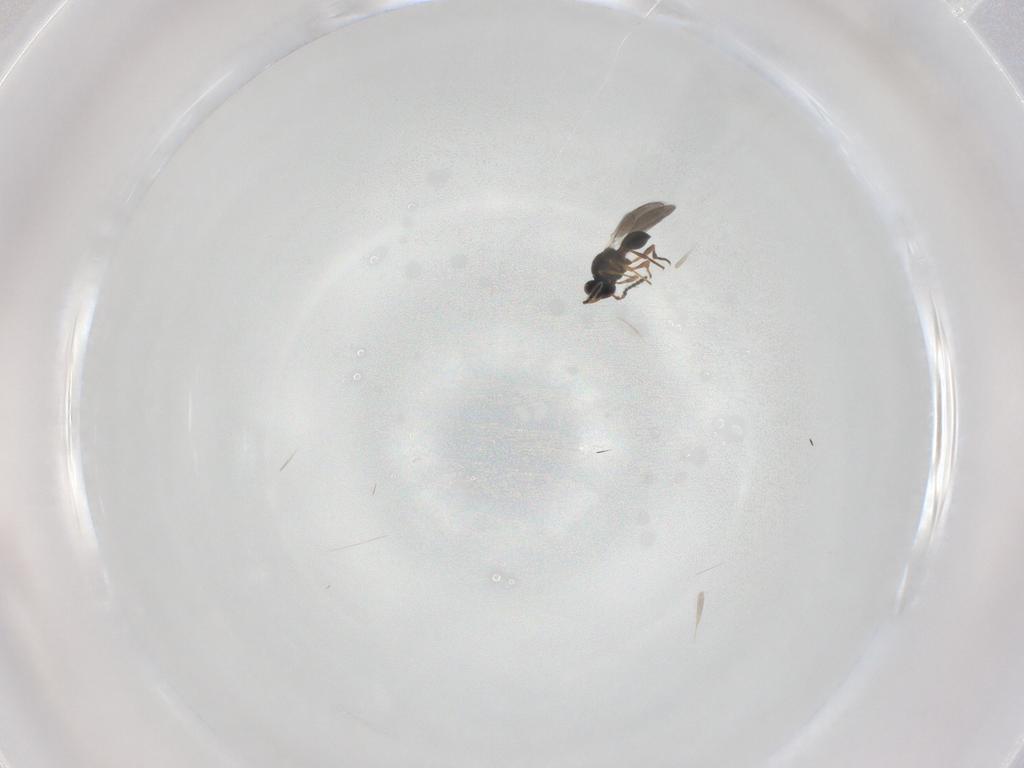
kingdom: Animalia
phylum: Arthropoda
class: Insecta
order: Hymenoptera
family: Platygastridae
